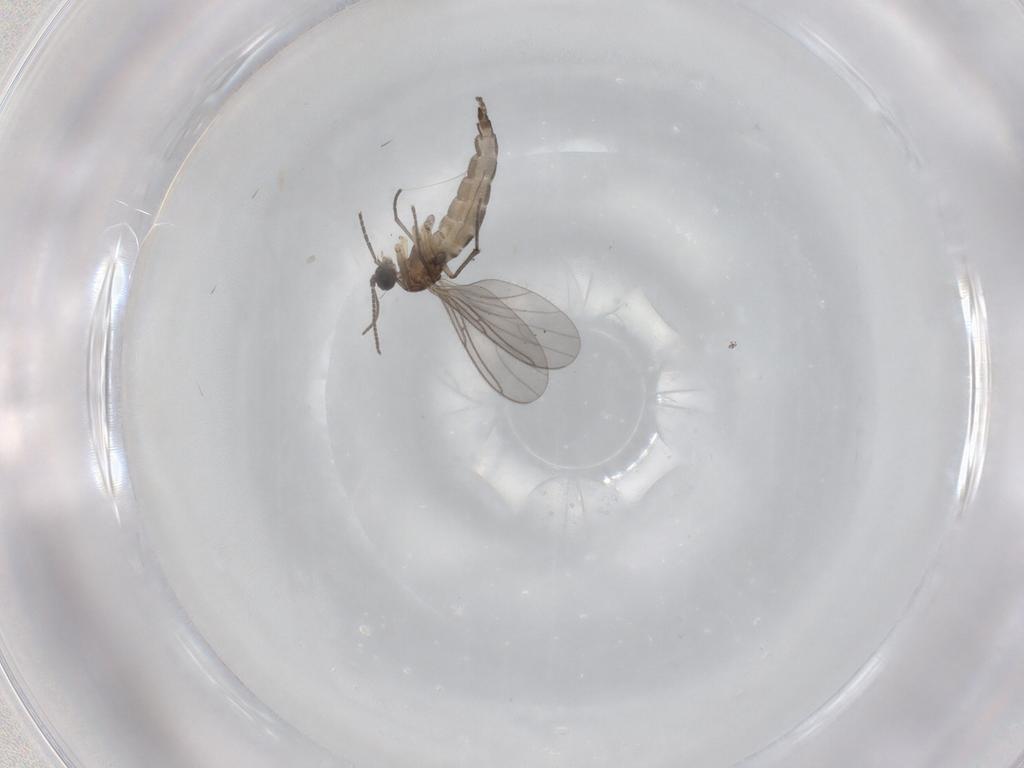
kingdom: Animalia
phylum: Arthropoda
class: Insecta
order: Diptera
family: Sciaridae
